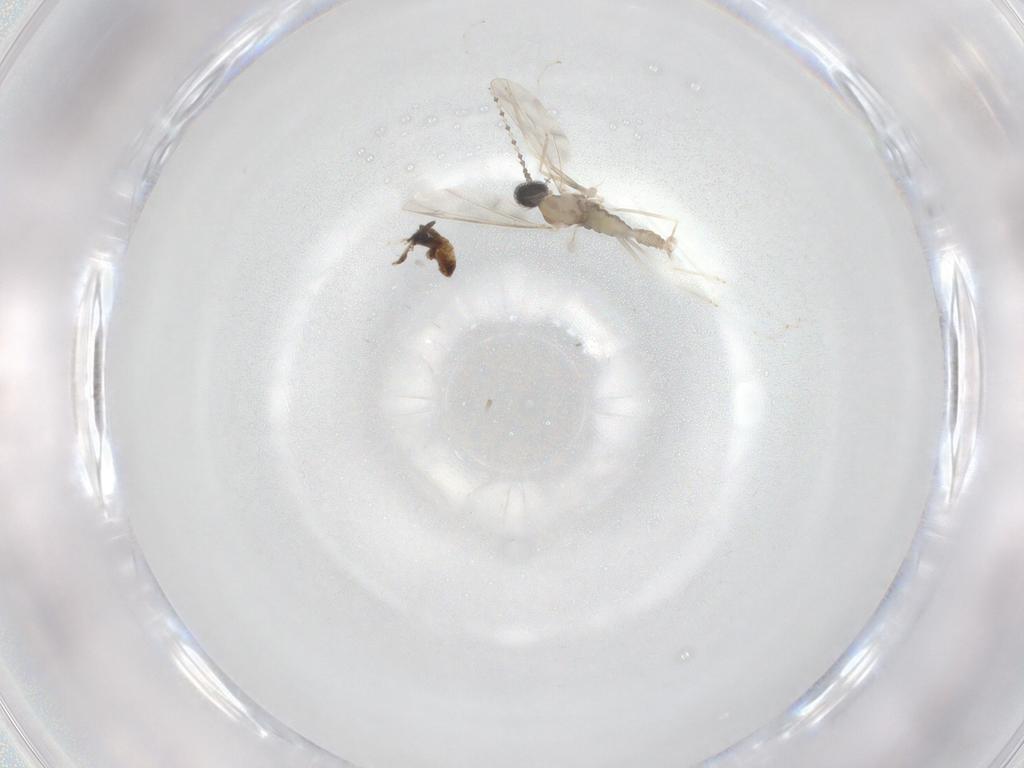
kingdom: Animalia
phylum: Arthropoda
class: Insecta
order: Diptera
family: Cecidomyiidae
